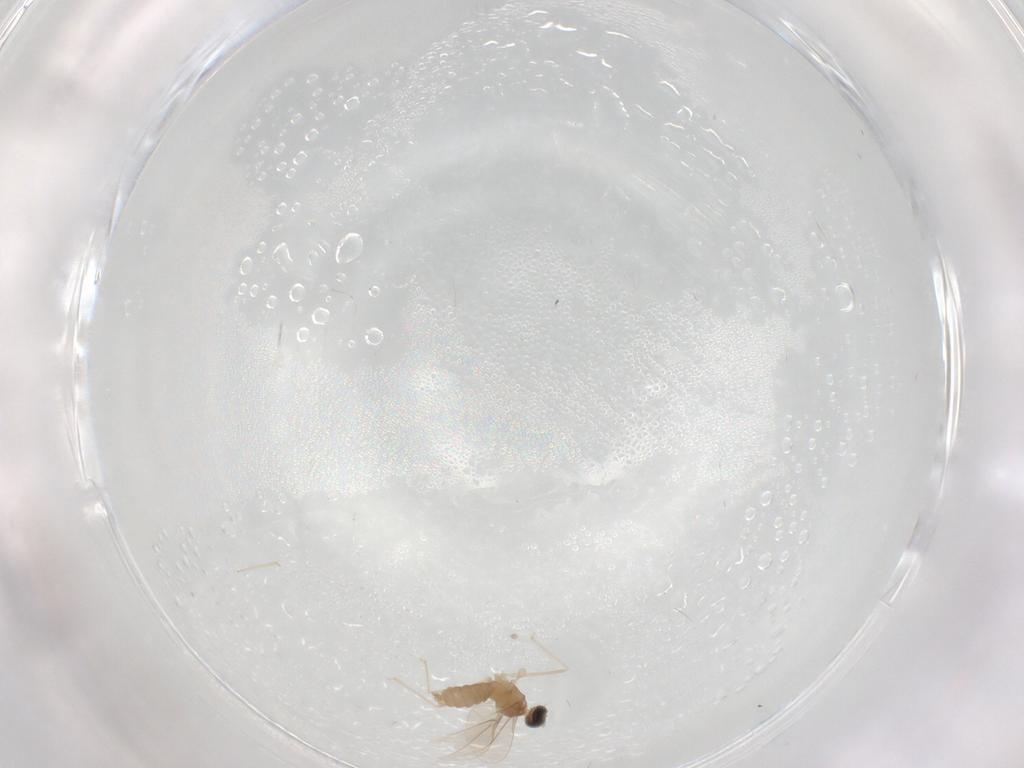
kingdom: Animalia
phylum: Arthropoda
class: Insecta
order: Diptera
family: Cecidomyiidae
